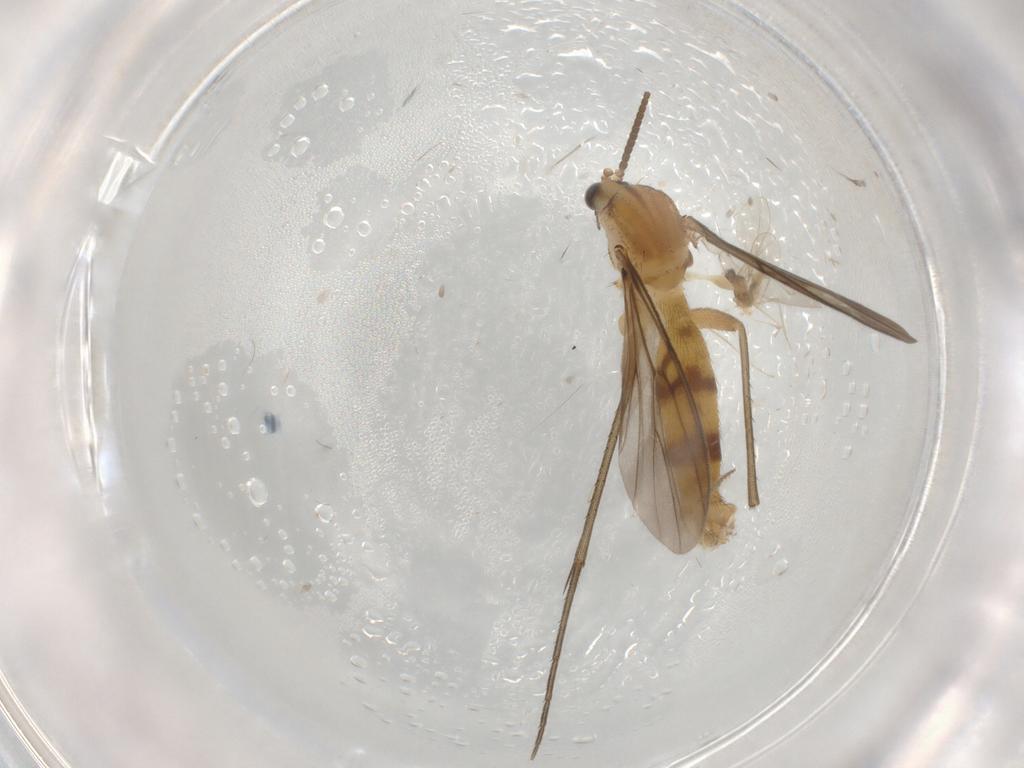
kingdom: Animalia
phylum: Arthropoda
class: Insecta
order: Diptera
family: Mycetophilidae
